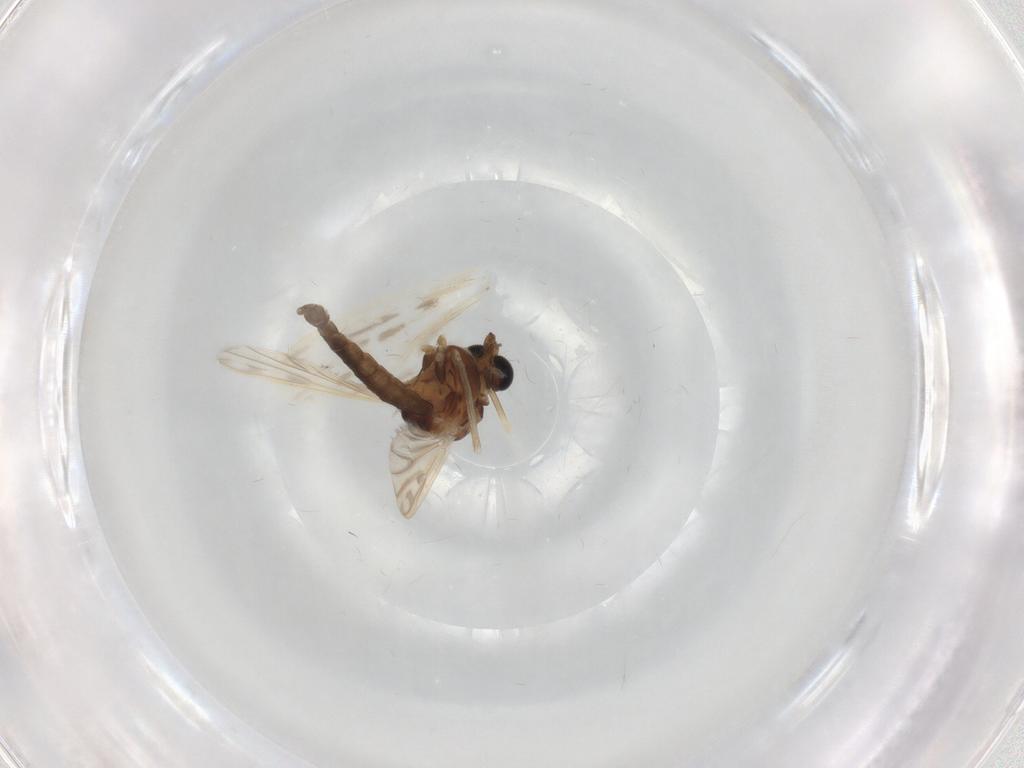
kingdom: Animalia
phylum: Arthropoda
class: Insecta
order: Diptera
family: Chironomidae
